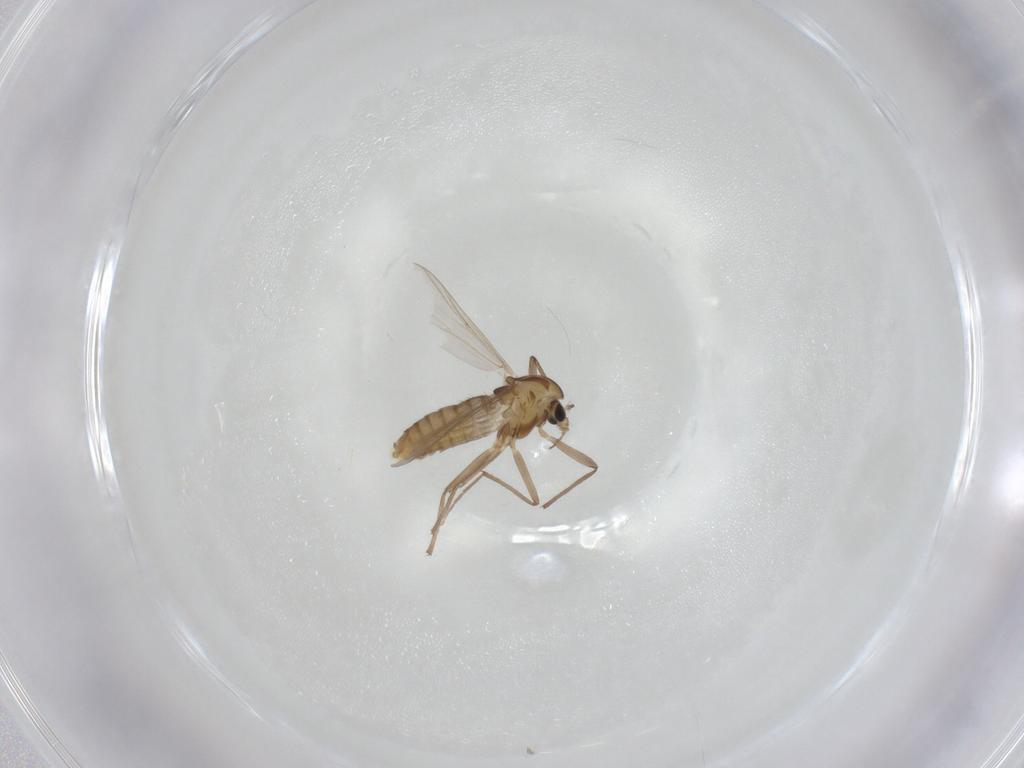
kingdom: Animalia
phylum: Arthropoda
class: Insecta
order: Diptera
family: Chironomidae
